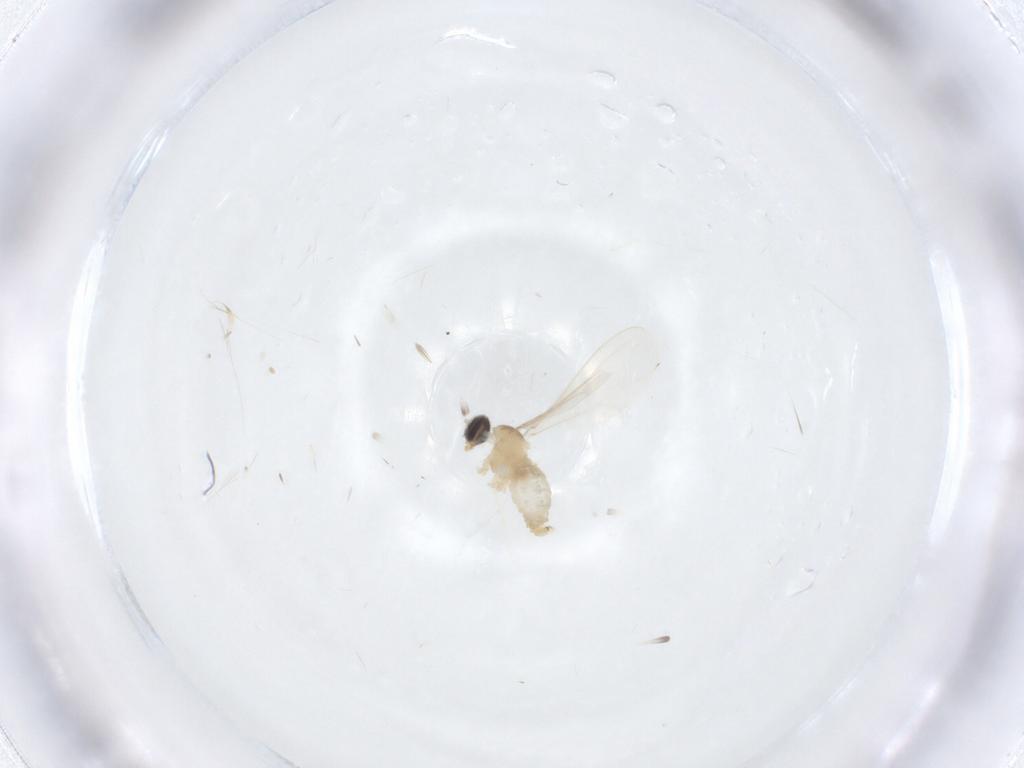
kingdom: Animalia
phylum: Arthropoda
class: Insecta
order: Diptera
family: Cecidomyiidae
